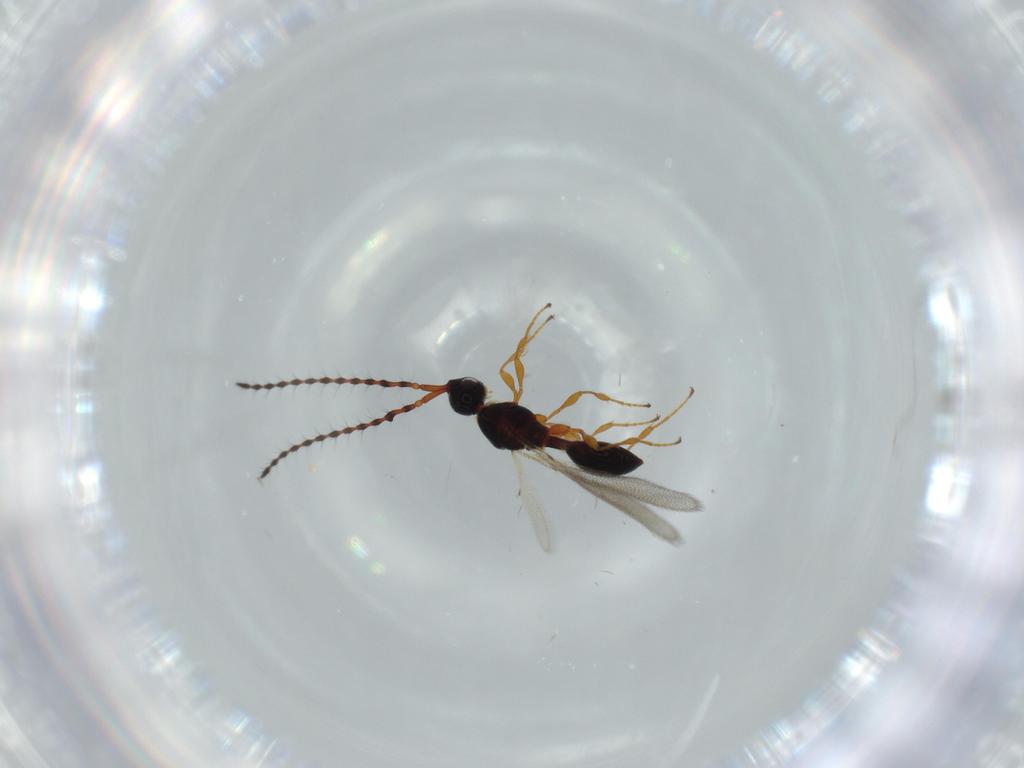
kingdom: Animalia
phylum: Arthropoda
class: Insecta
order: Hymenoptera
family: Diapriidae
